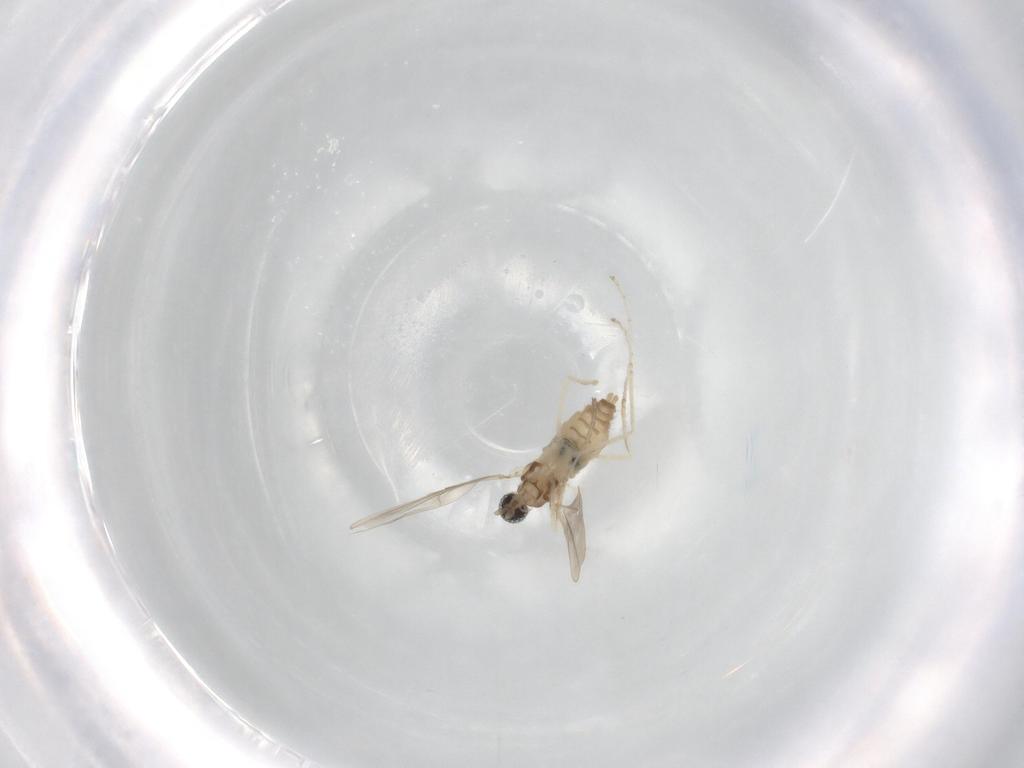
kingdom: Animalia
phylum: Arthropoda
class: Insecta
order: Diptera
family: Cecidomyiidae
